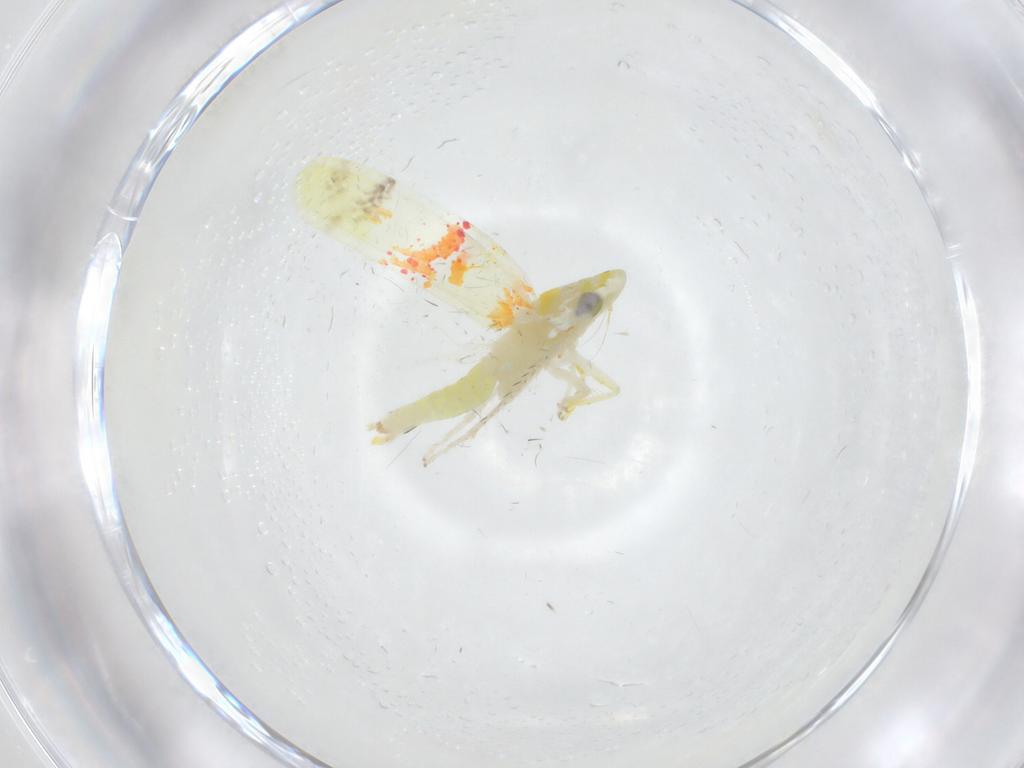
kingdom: Animalia
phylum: Arthropoda
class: Insecta
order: Hemiptera
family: Cicadellidae
